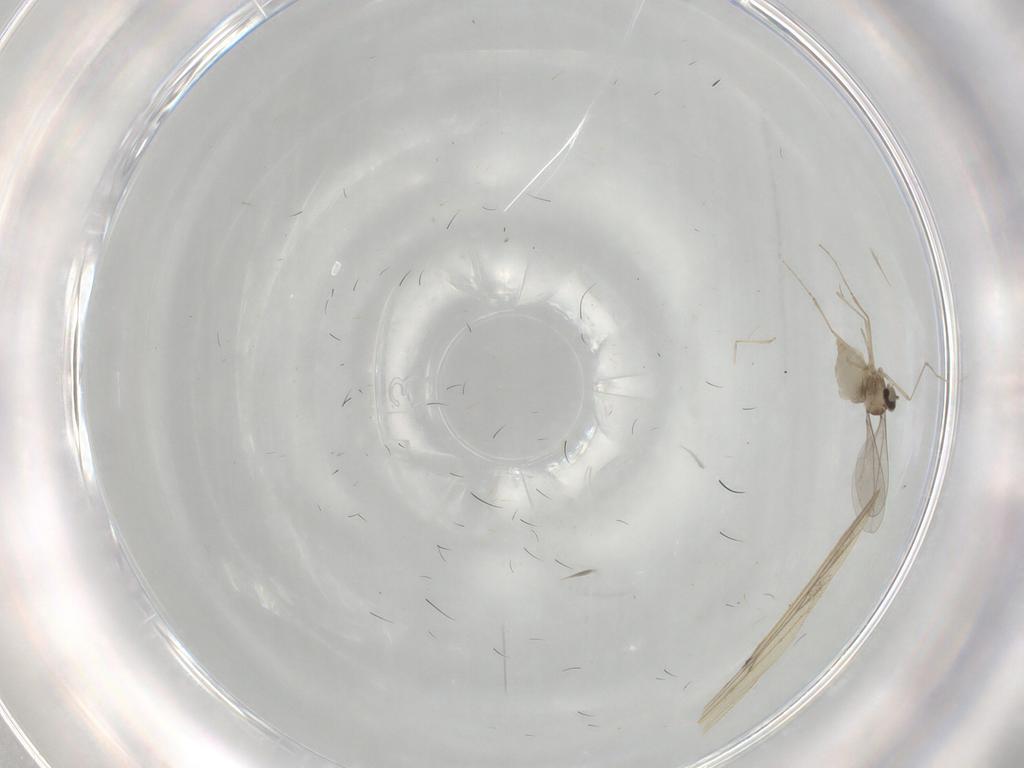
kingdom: Animalia
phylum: Arthropoda
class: Insecta
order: Diptera
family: Limoniidae
